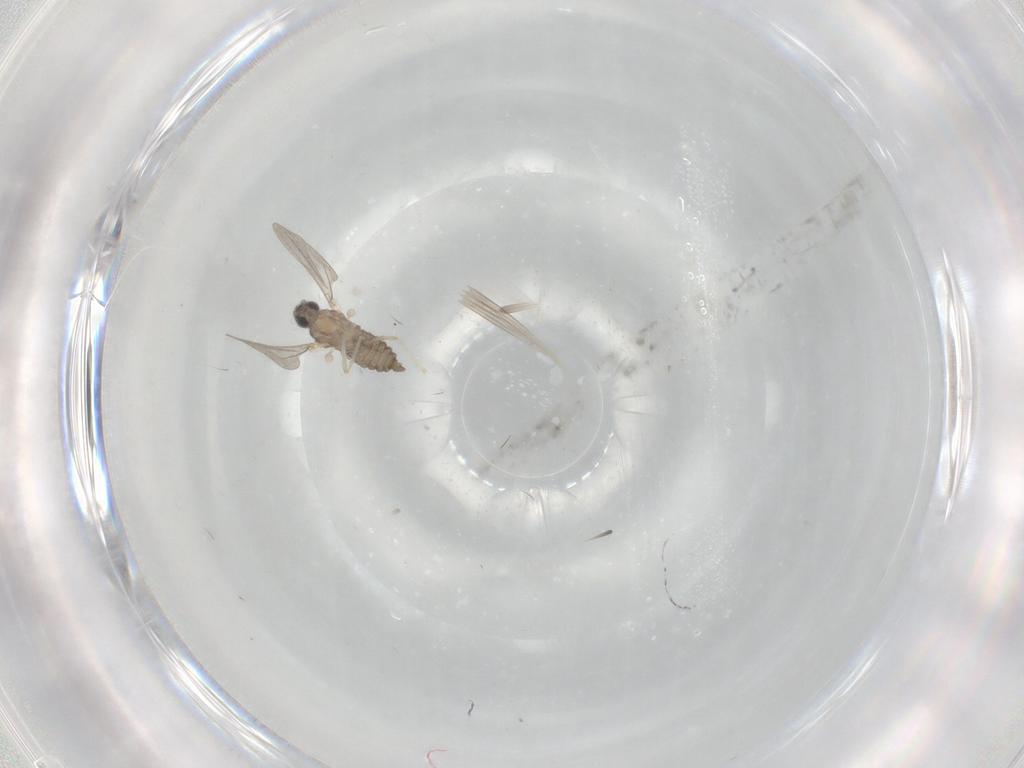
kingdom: Animalia
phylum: Arthropoda
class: Insecta
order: Diptera
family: Cecidomyiidae
